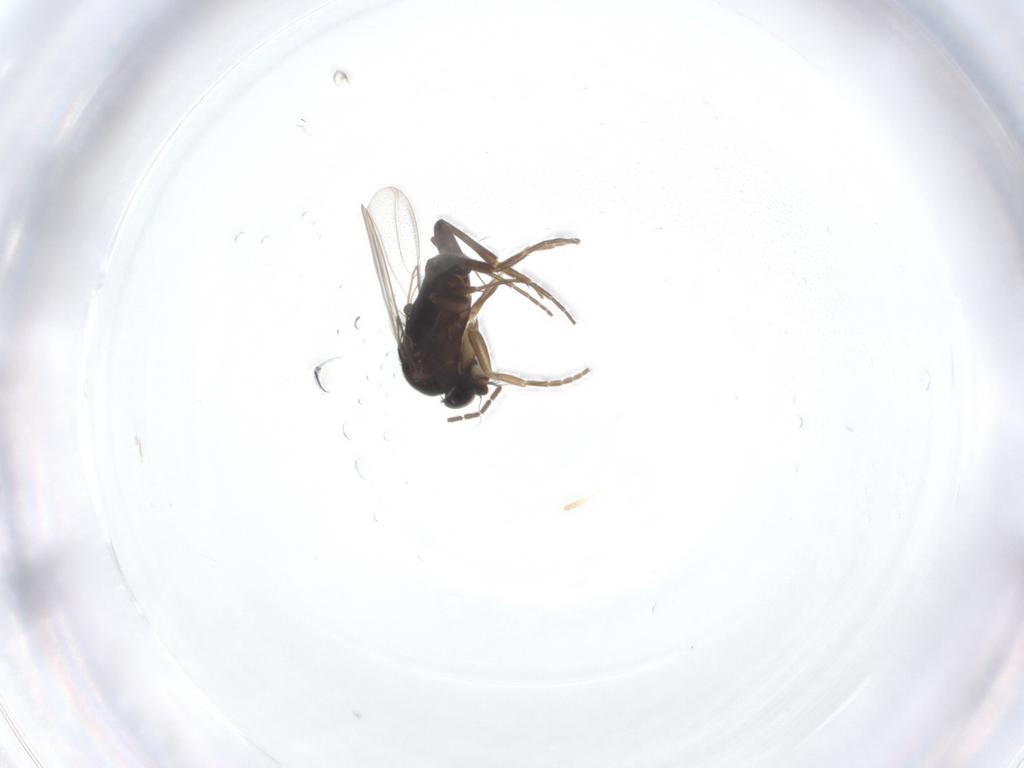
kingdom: Animalia
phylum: Arthropoda
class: Insecta
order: Diptera
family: Phoridae
